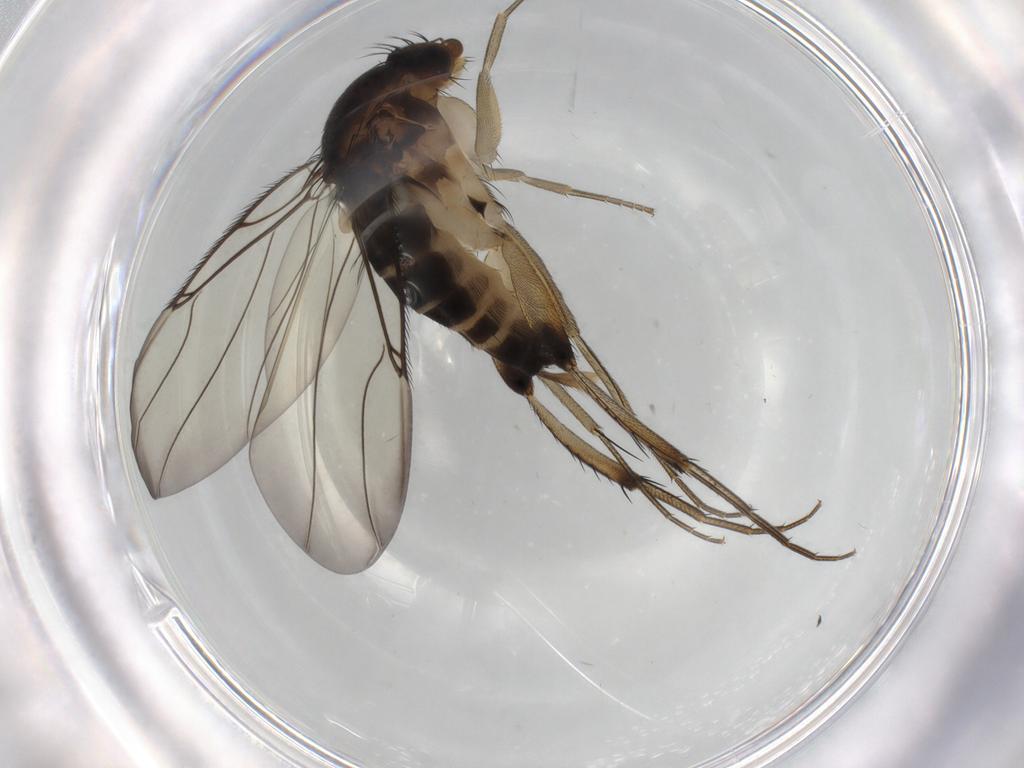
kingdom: Animalia
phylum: Arthropoda
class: Insecta
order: Diptera
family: Phoridae
